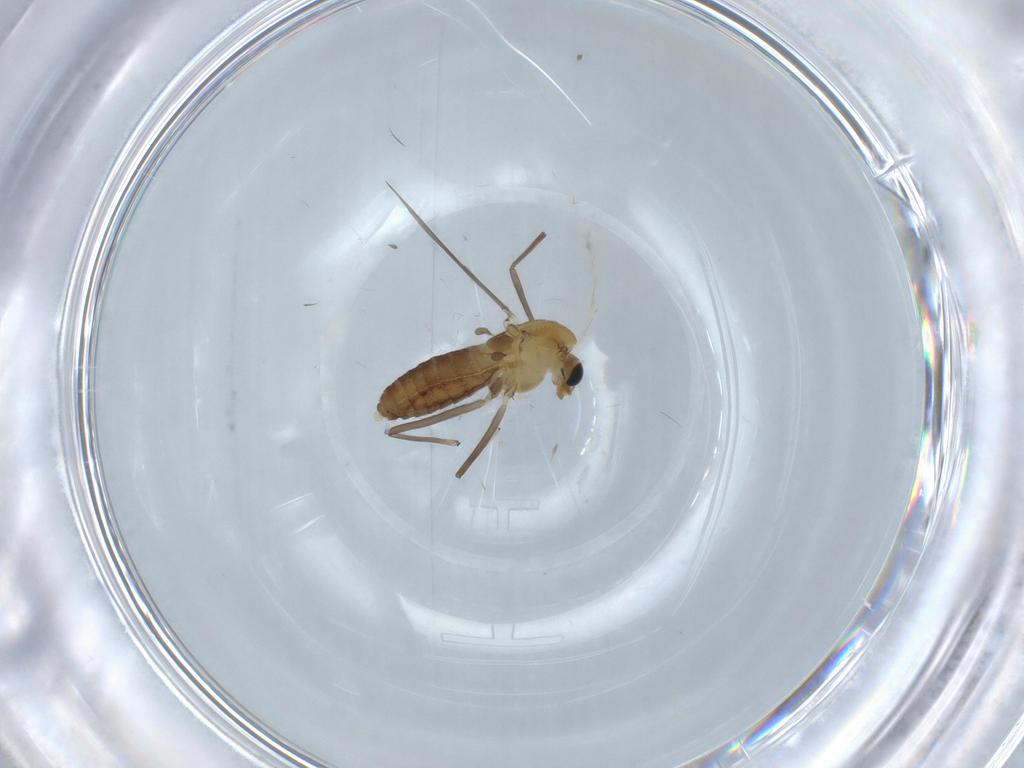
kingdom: Animalia
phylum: Arthropoda
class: Insecta
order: Diptera
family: Chironomidae
